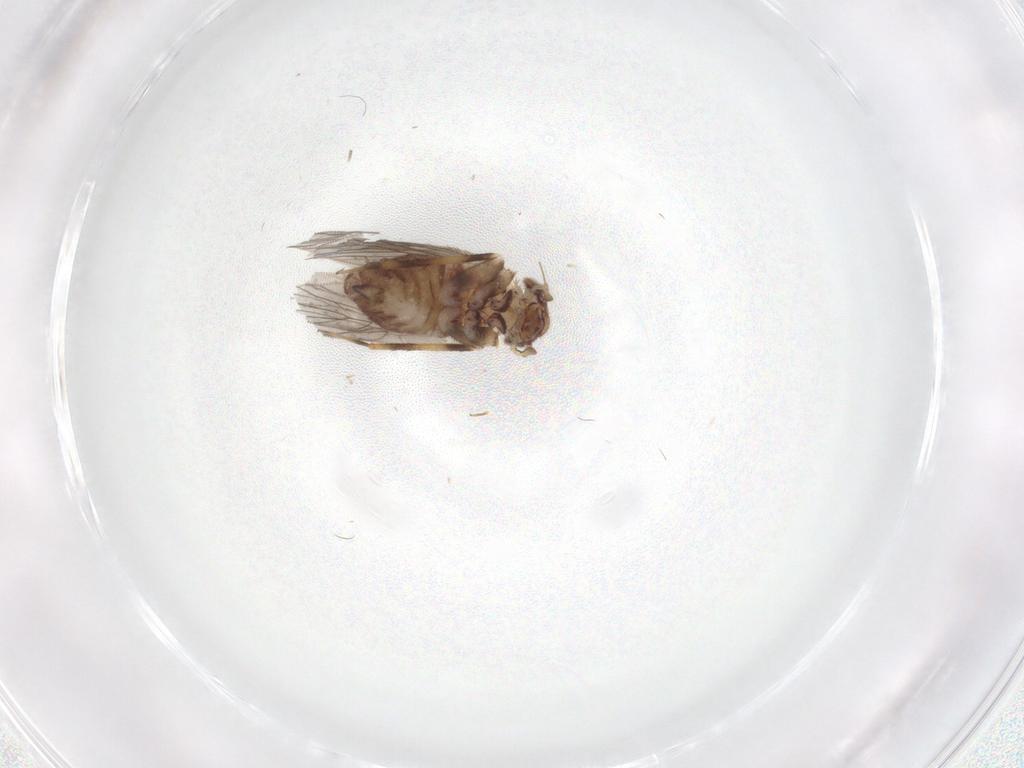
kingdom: Animalia
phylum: Arthropoda
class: Insecta
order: Psocodea
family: Lepidopsocidae
